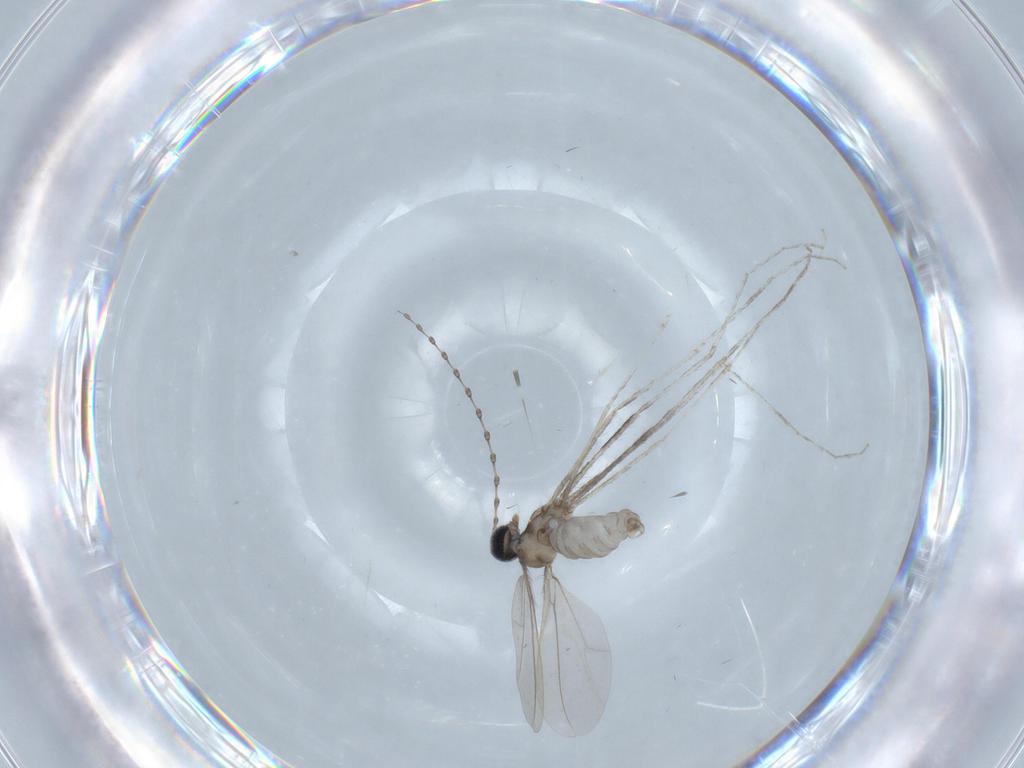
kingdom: Animalia
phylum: Arthropoda
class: Insecta
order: Diptera
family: Cecidomyiidae
